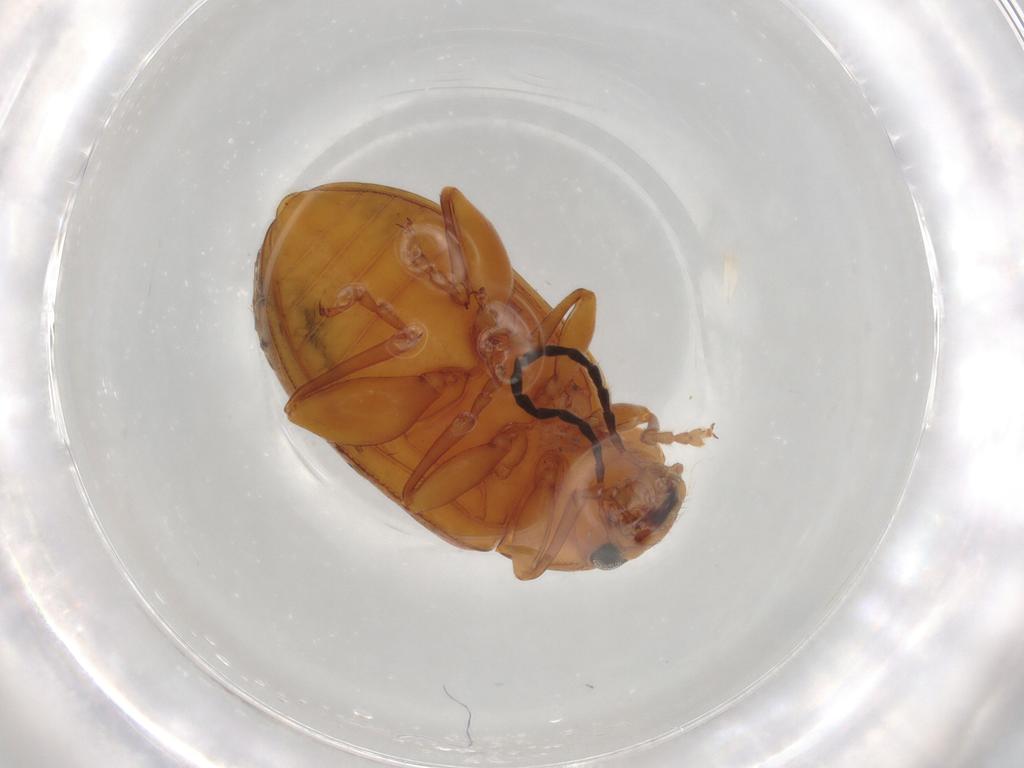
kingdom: Animalia
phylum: Arthropoda
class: Insecta
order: Coleoptera
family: Chrysomelidae
